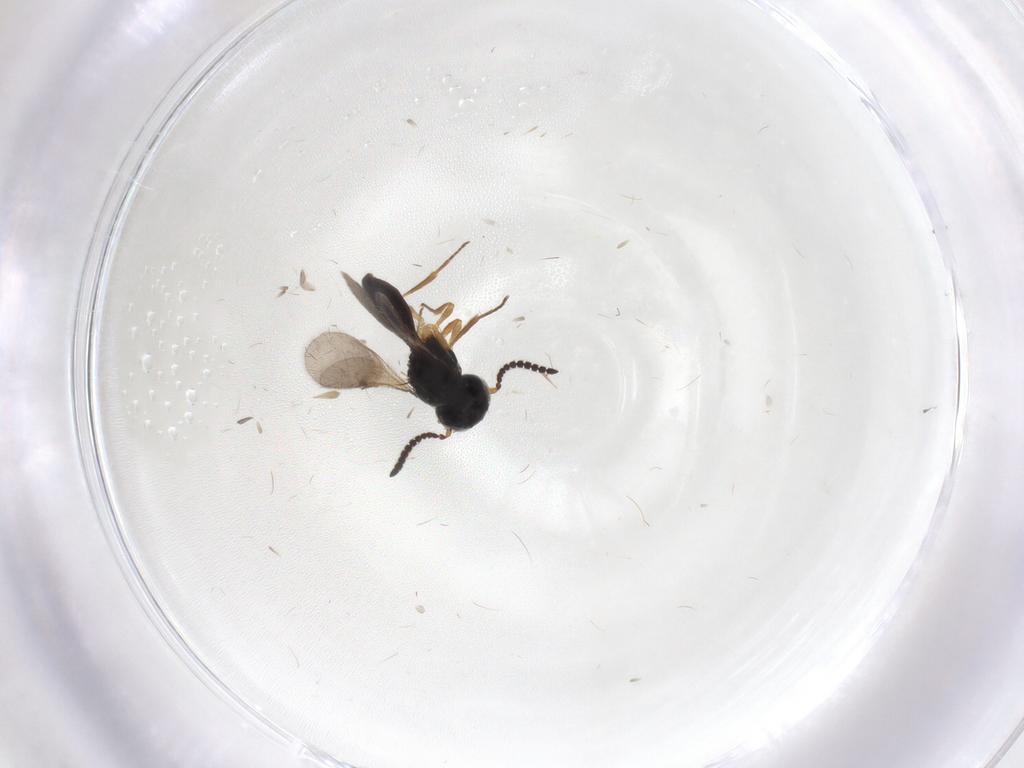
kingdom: Animalia
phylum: Arthropoda
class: Insecta
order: Hymenoptera
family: Scelionidae
